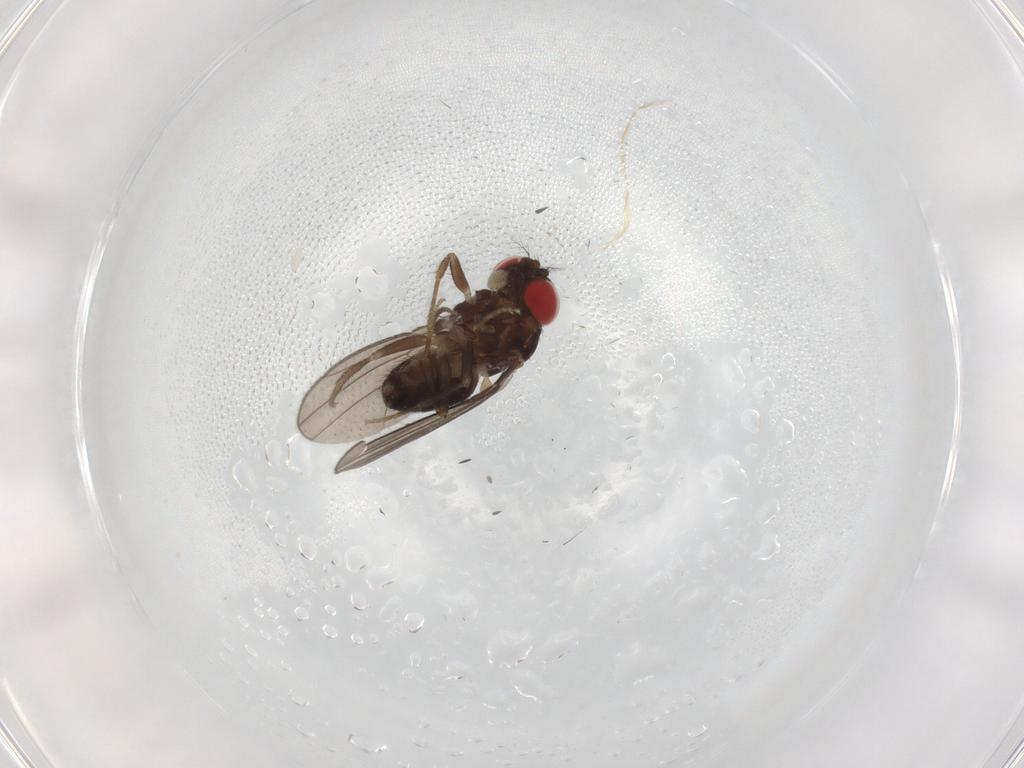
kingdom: Animalia
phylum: Arthropoda
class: Insecta
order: Diptera
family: Drosophilidae
